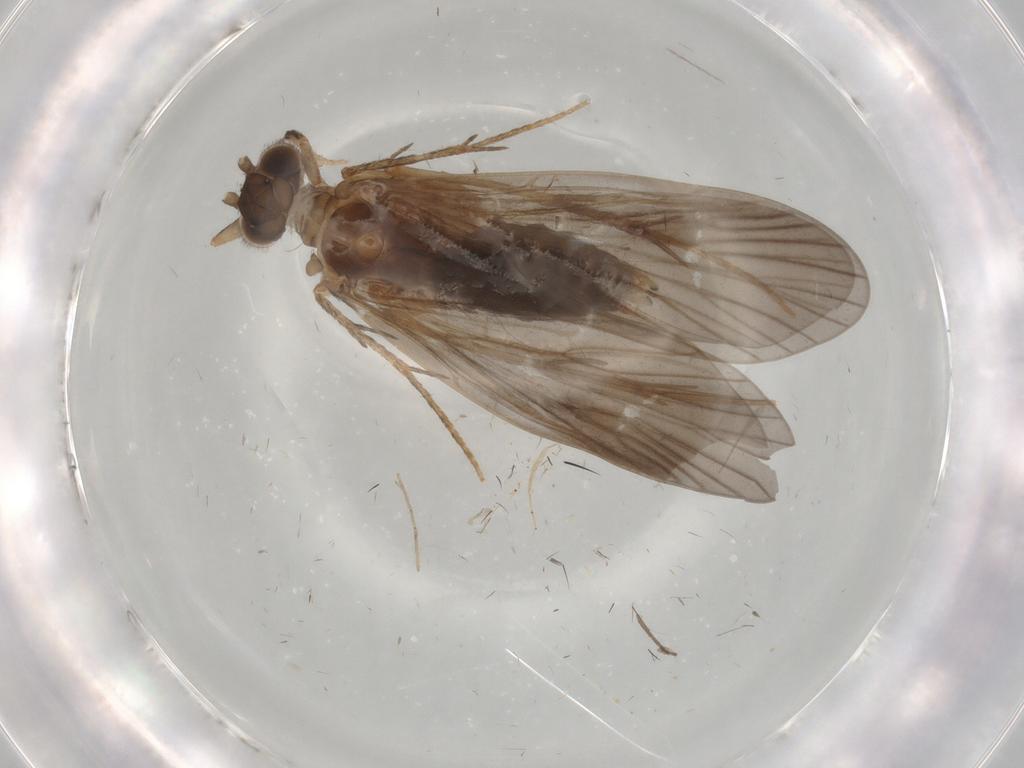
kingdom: Animalia
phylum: Arthropoda
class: Insecta
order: Trichoptera
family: Philopotamidae
